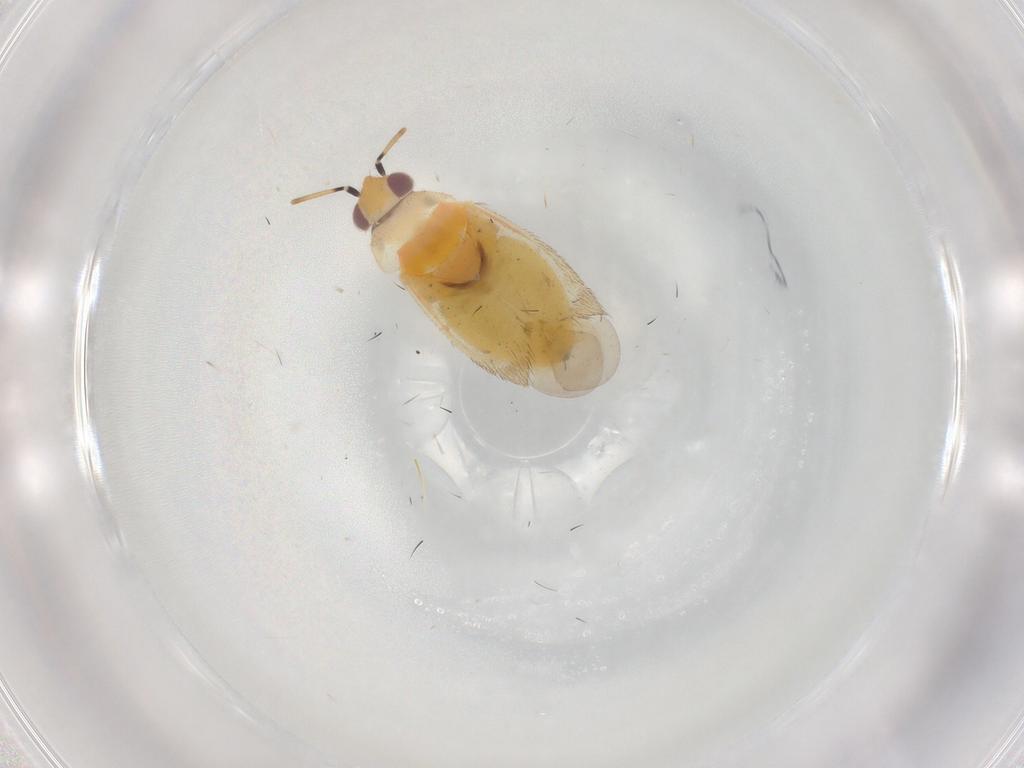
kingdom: Animalia
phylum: Arthropoda
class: Insecta
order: Hemiptera
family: Miridae
